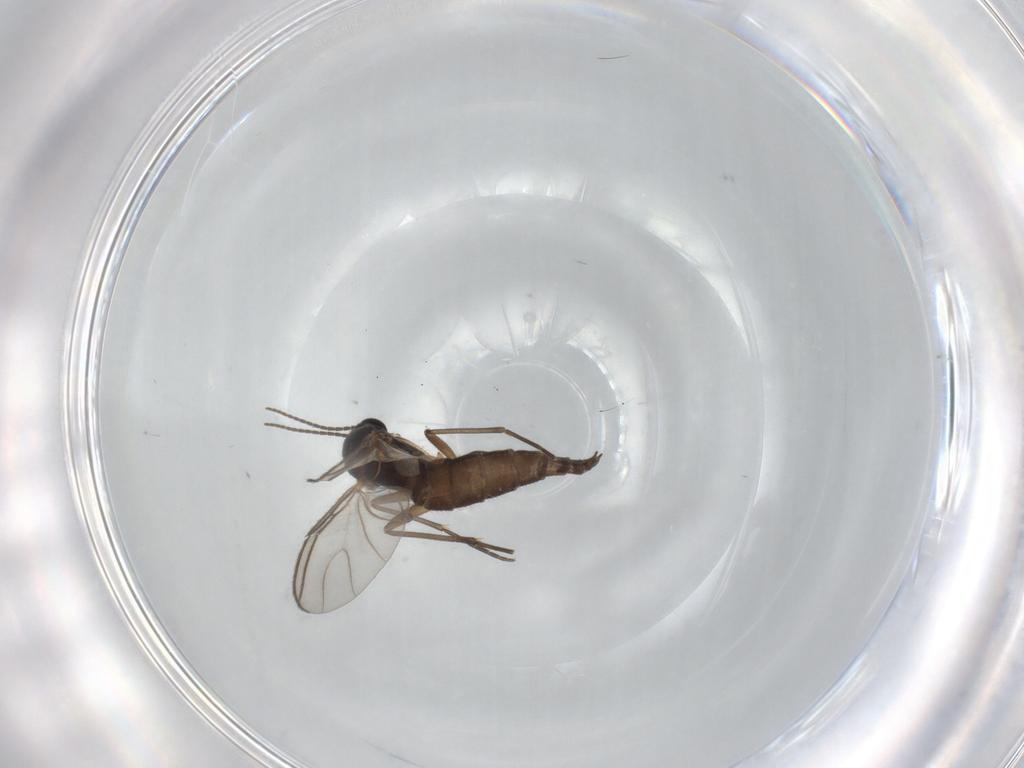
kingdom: Animalia
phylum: Arthropoda
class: Insecta
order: Diptera
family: Sciaridae
